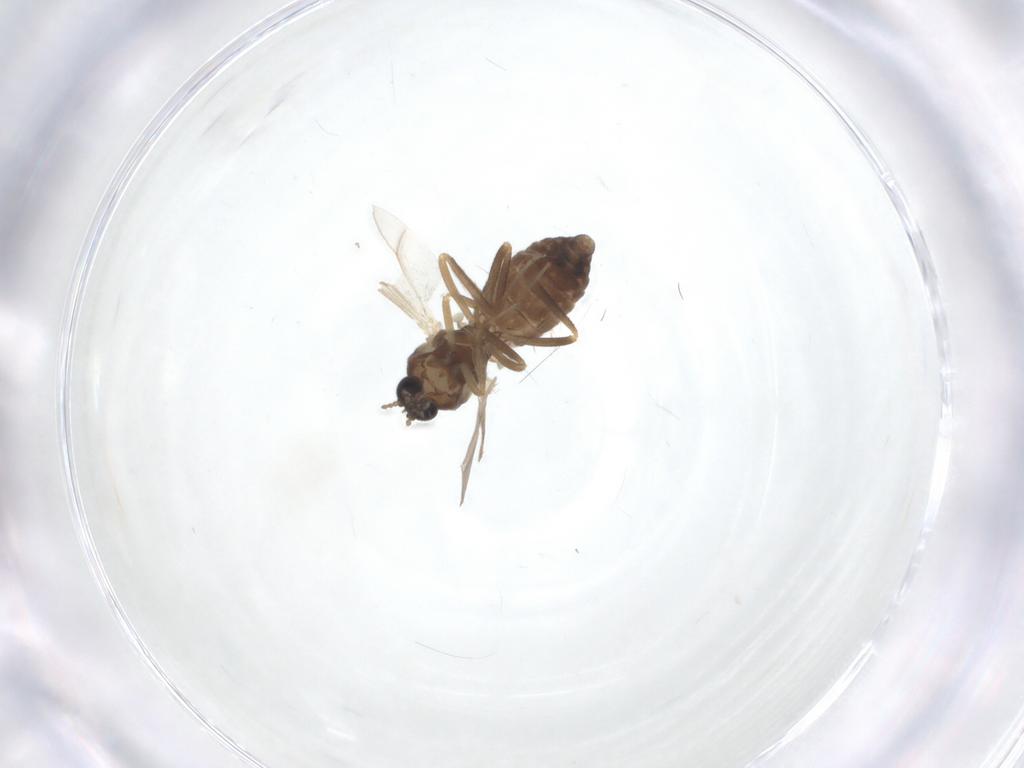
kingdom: Animalia
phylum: Arthropoda
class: Insecta
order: Diptera
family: Ceratopogonidae
